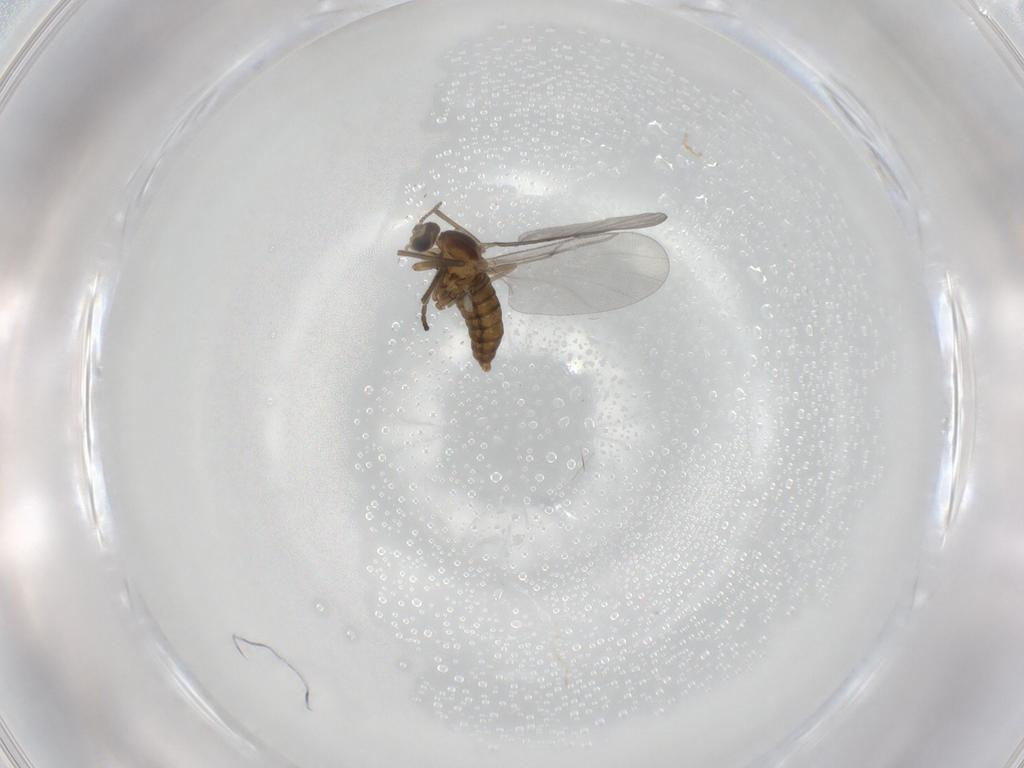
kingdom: Animalia
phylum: Arthropoda
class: Insecta
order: Diptera
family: Cecidomyiidae
